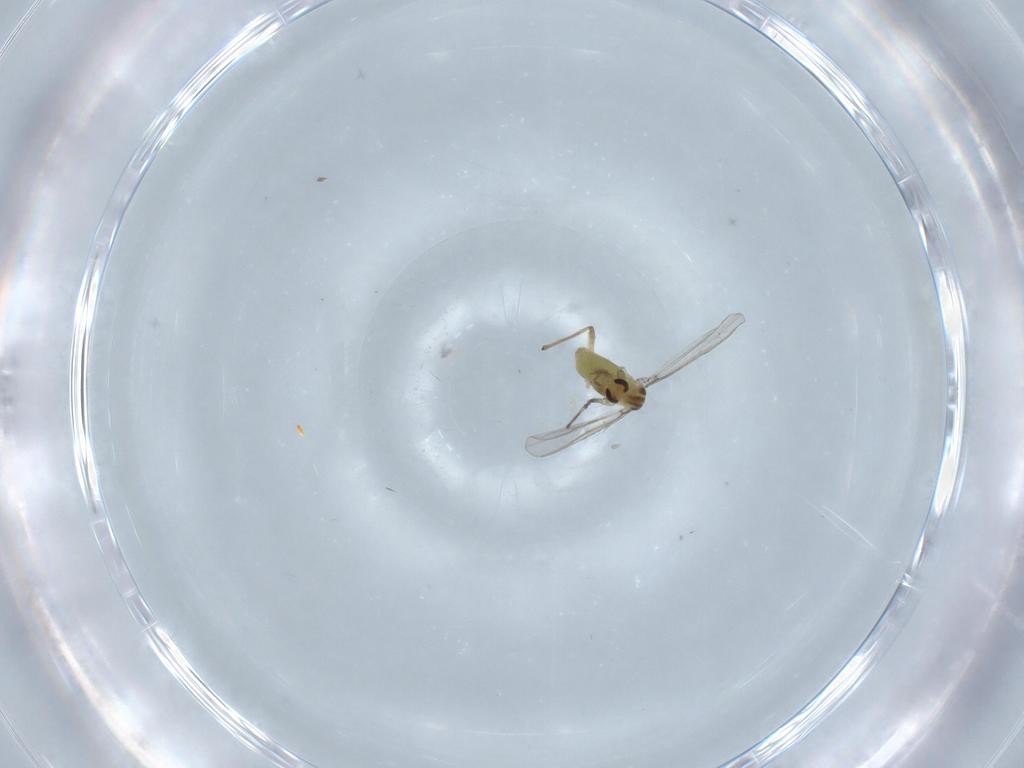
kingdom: Animalia
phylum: Arthropoda
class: Insecta
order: Diptera
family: Chironomidae
